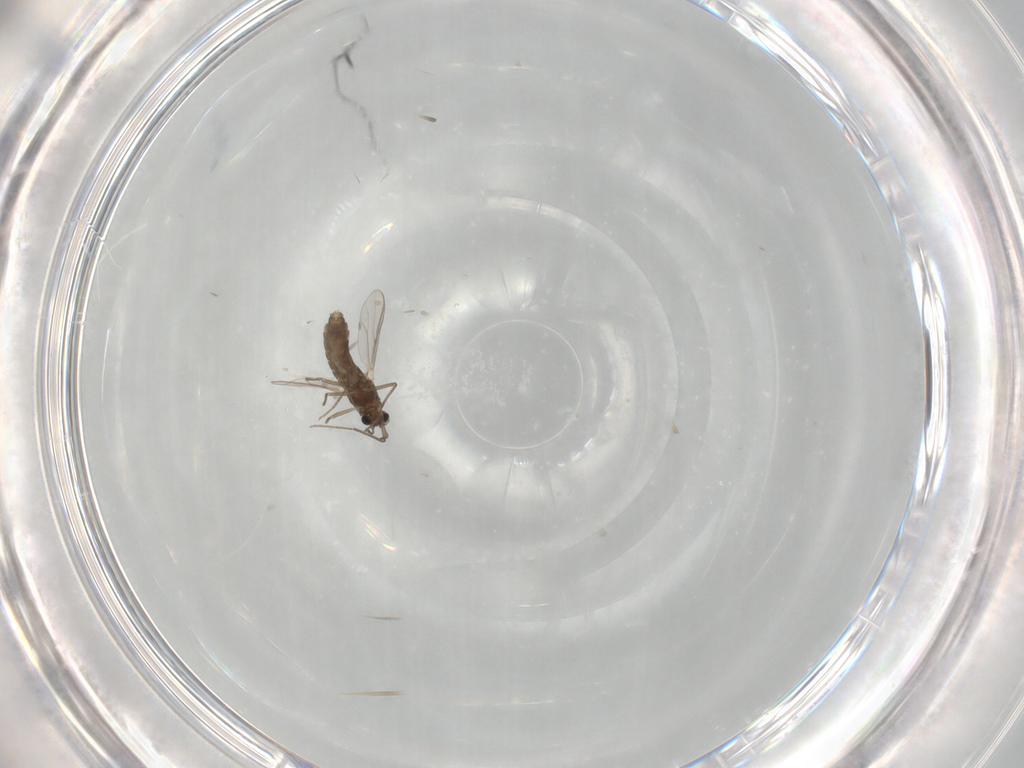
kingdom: Animalia
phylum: Arthropoda
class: Insecta
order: Diptera
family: Chironomidae
